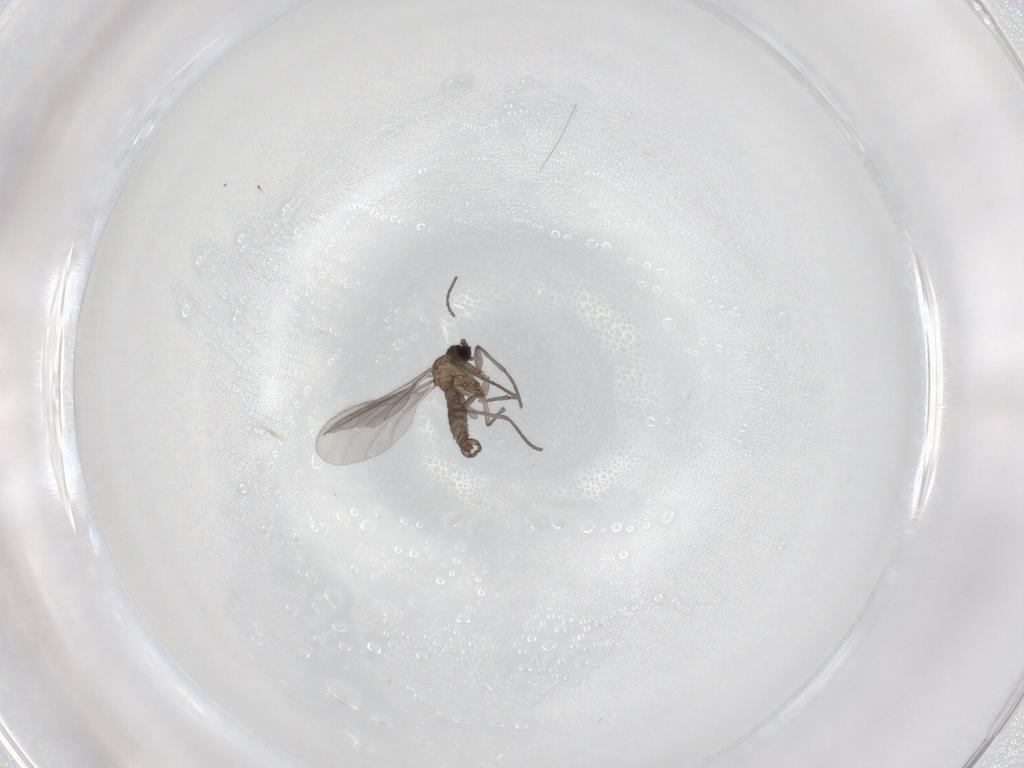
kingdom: Animalia
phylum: Arthropoda
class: Insecta
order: Diptera
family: Sciaridae
